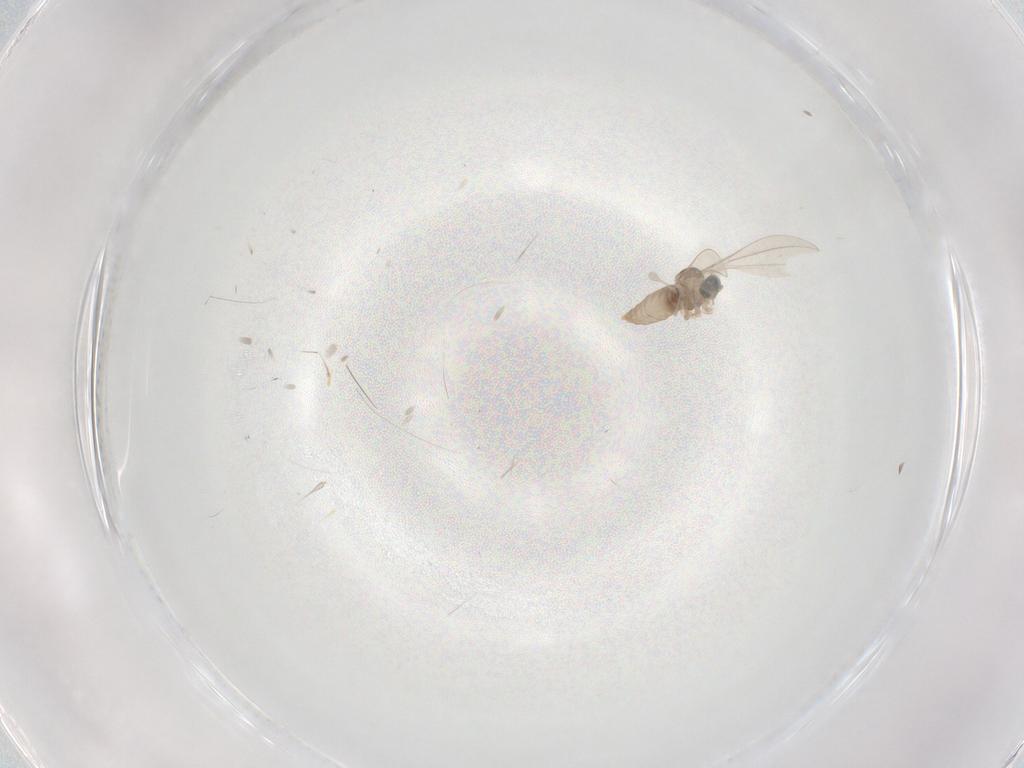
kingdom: Animalia
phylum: Arthropoda
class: Insecta
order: Diptera
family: Cecidomyiidae
